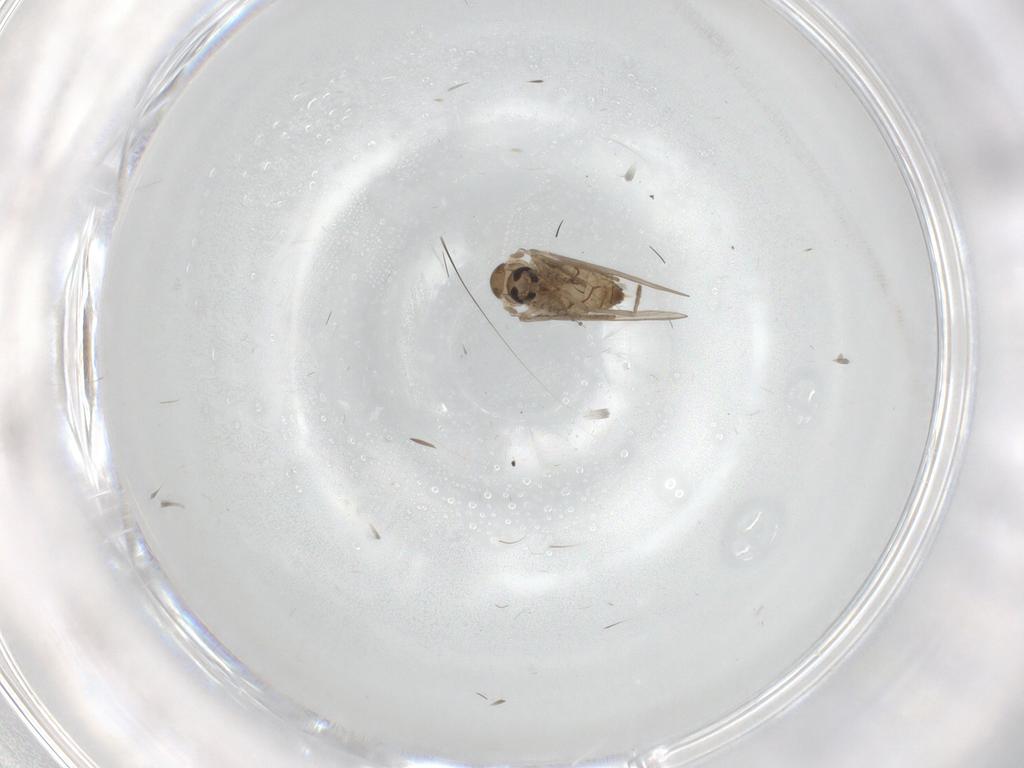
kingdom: Animalia
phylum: Arthropoda
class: Insecta
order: Diptera
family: Psychodidae
